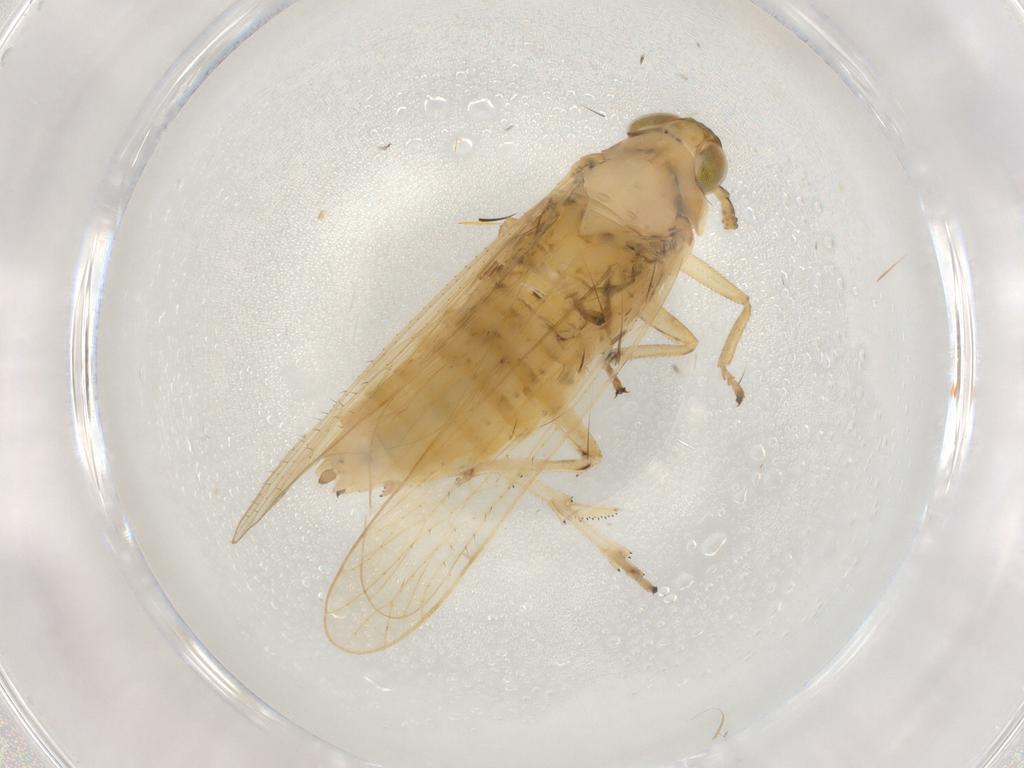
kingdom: Animalia
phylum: Arthropoda
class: Insecta
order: Hemiptera
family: Delphacidae
